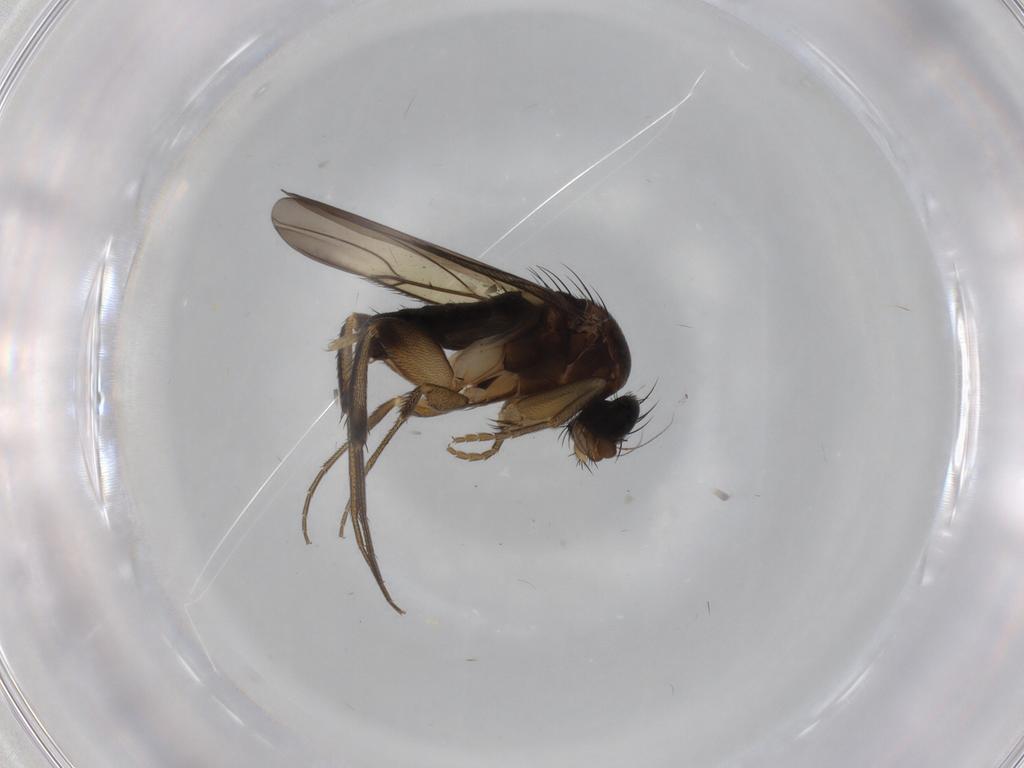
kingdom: Animalia
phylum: Arthropoda
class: Insecta
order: Diptera
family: Phoridae
